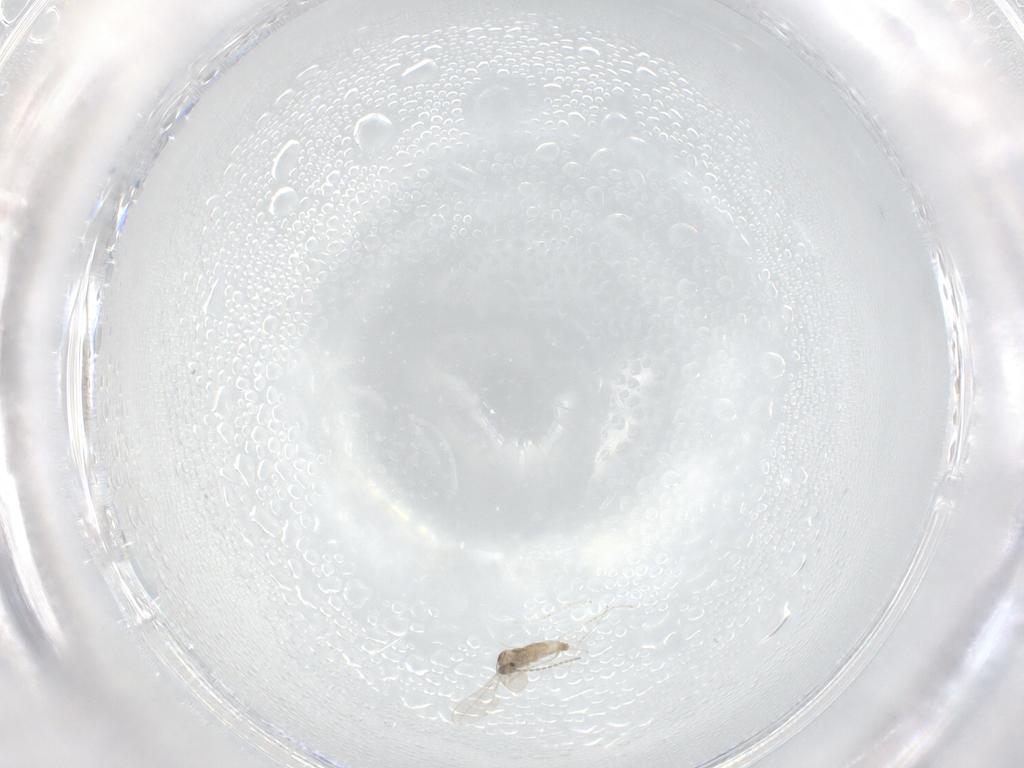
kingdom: Animalia
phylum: Arthropoda
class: Insecta
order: Diptera
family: Cecidomyiidae
